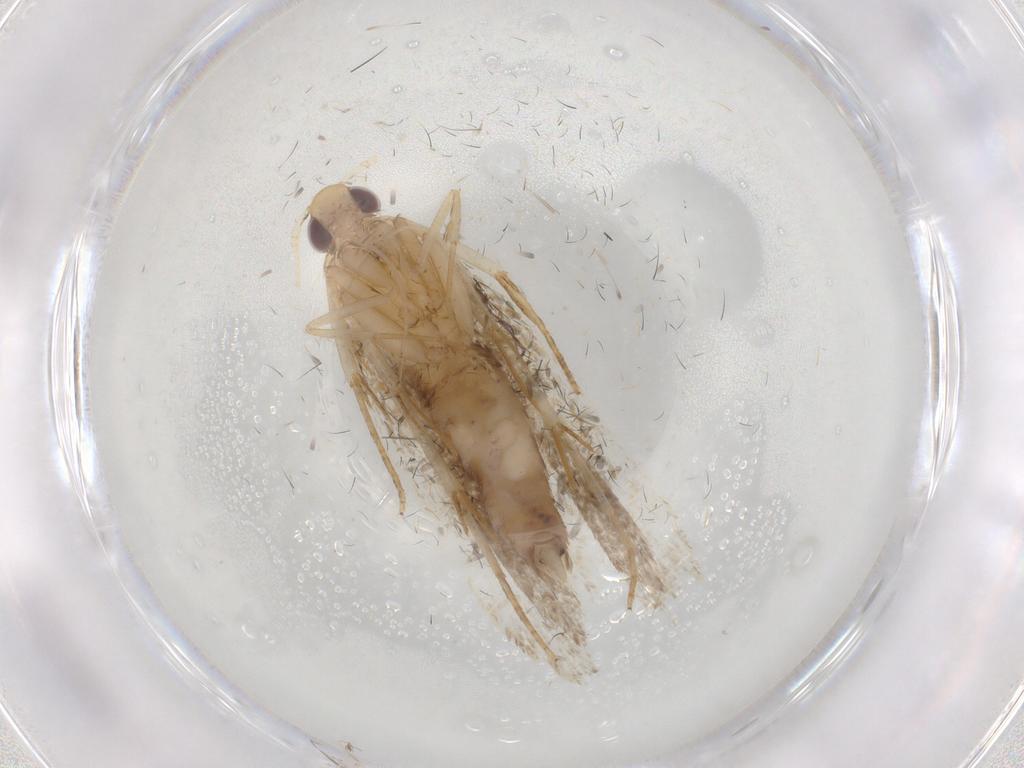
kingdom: Animalia
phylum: Arthropoda
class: Insecta
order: Lepidoptera
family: Gelechiidae
